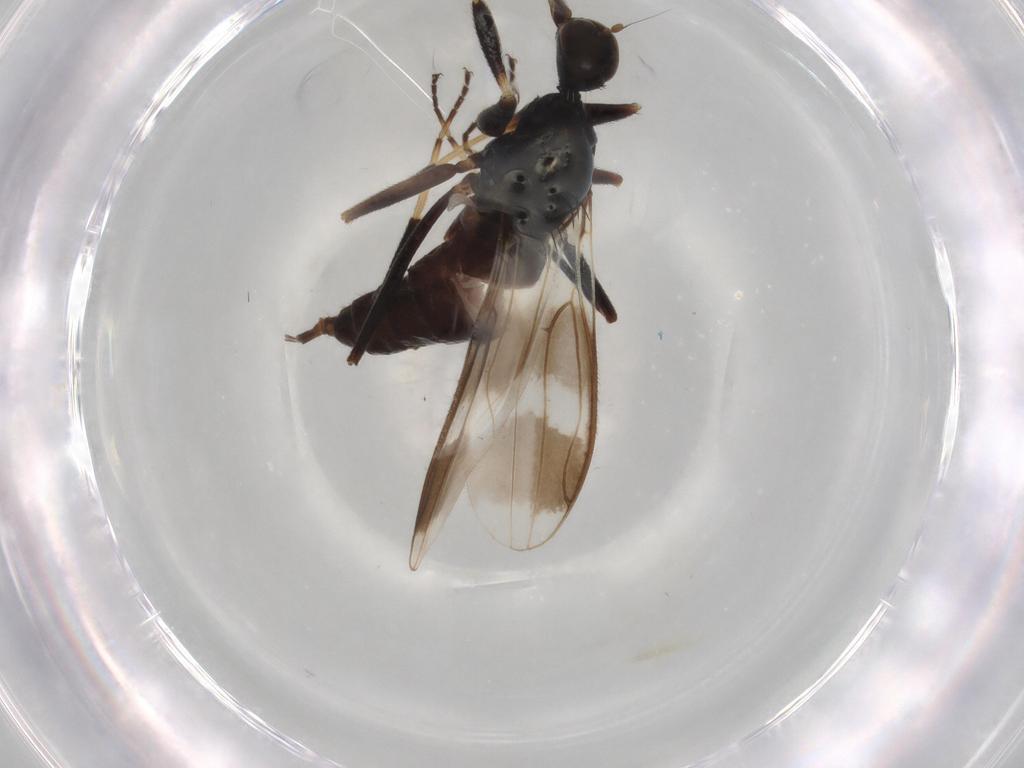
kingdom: Animalia
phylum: Arthropoda
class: Insecta
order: Diptera
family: Hybotidae
